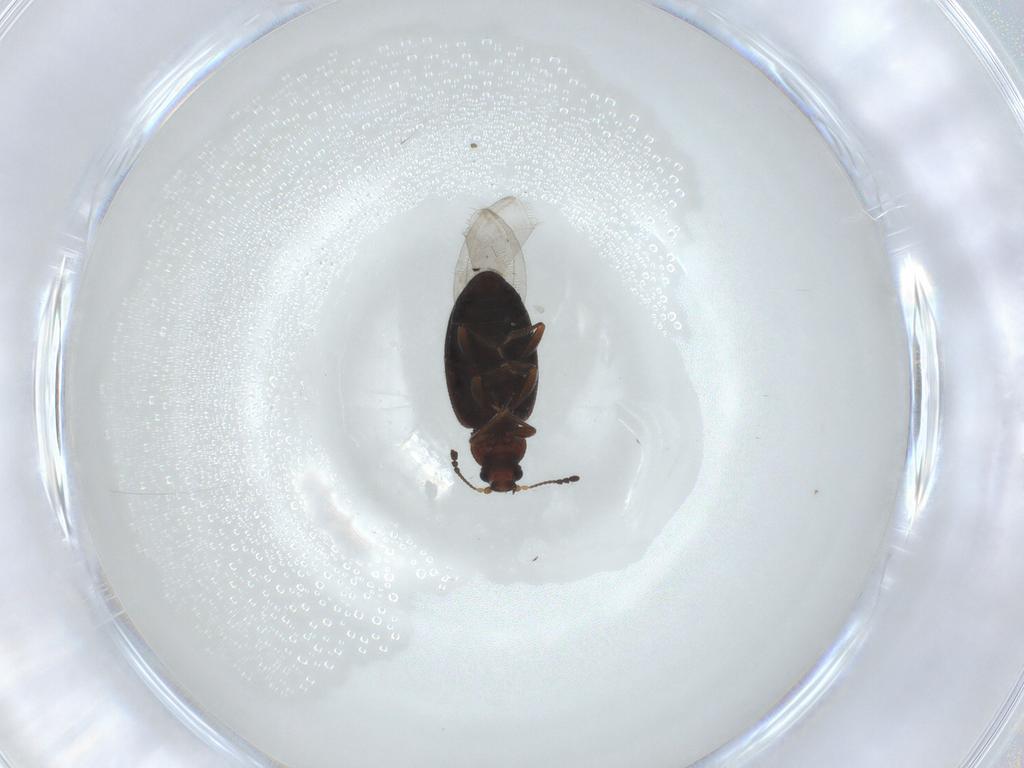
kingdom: Animalia
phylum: Arthropoda
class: Insecta
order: Coleoptera
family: Latridiidae
